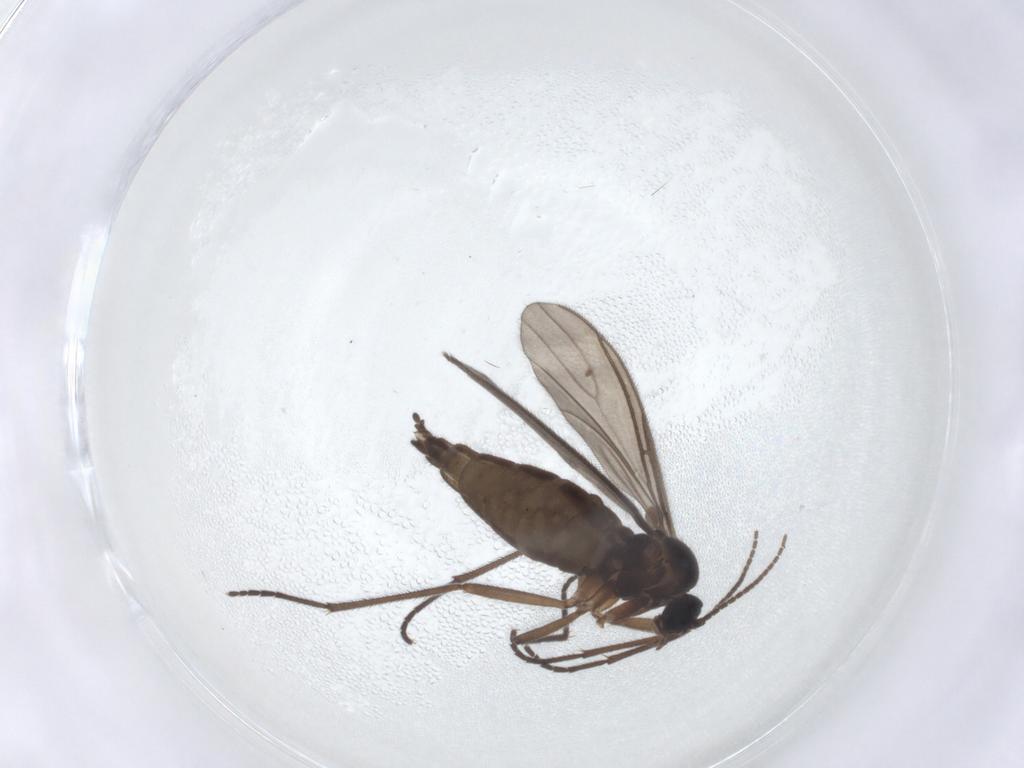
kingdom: Animalia
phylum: Arthropoda
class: Insecta
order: Diptera
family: Sciaridae
